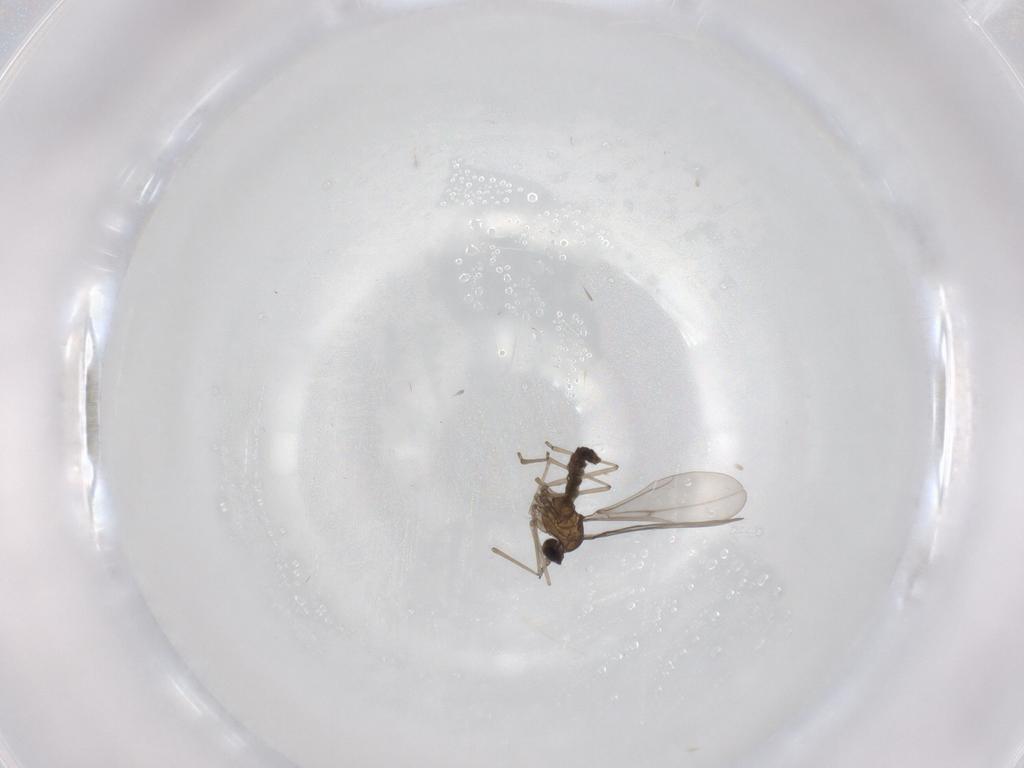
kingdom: Animalia
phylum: Arthropoda
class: Insecta
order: Diptera
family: Cecidomyiidae
